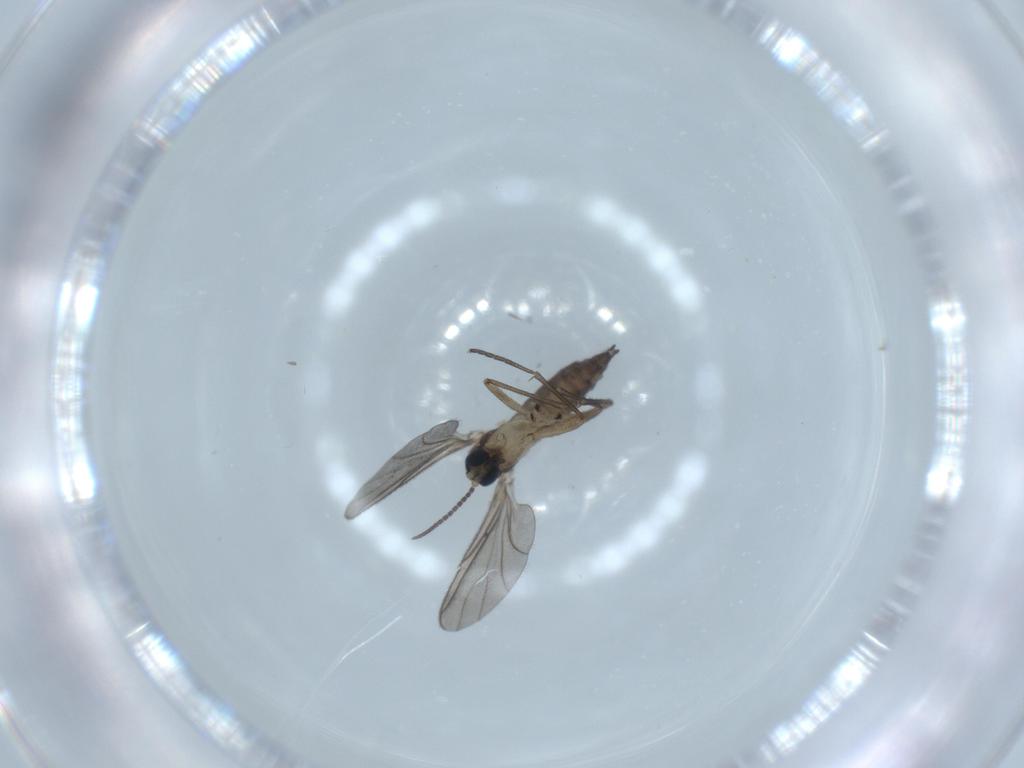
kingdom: Animalia
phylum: Arthropoda
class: Insecta
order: Diptera
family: Sciaridae
